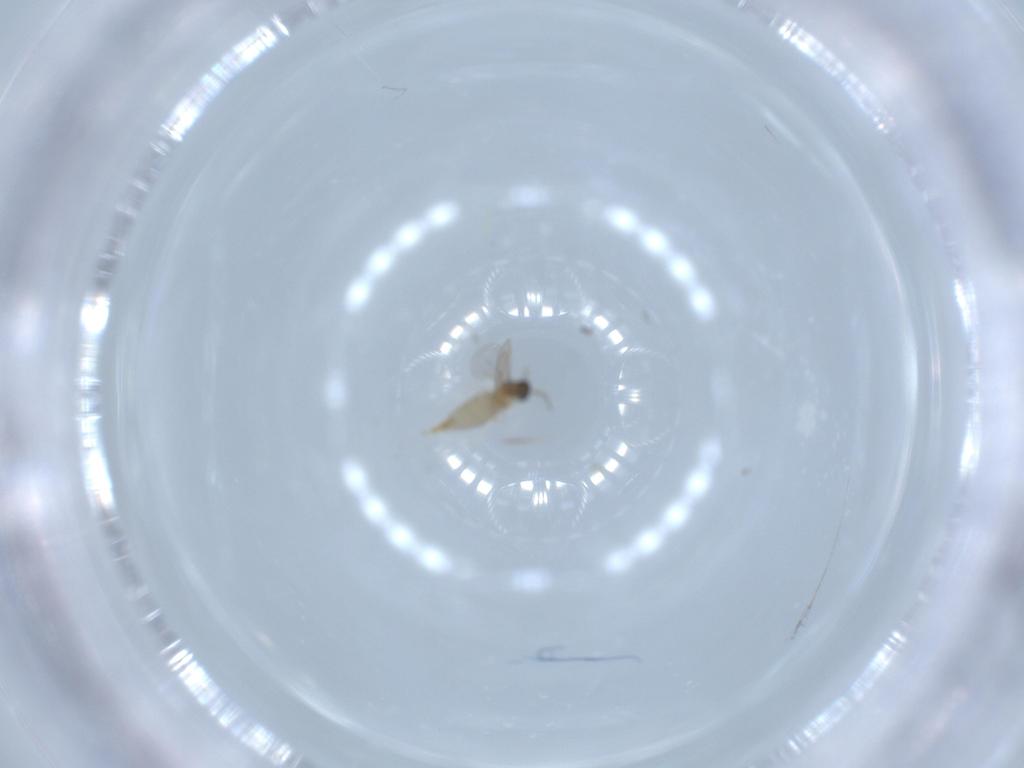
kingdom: Animalia
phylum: Arthropoda
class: Insecta
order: Diptera
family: Cecidomyiidae
